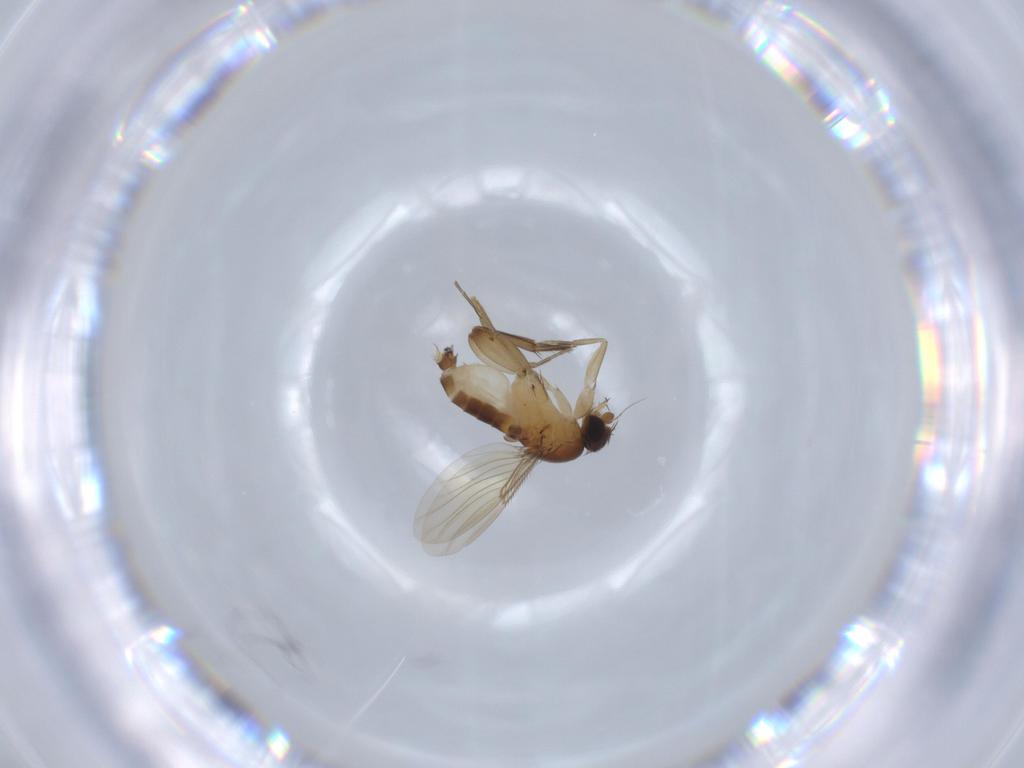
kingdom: Animalia
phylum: Arthropoda
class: Insecta
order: Diptera
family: Phoridae
